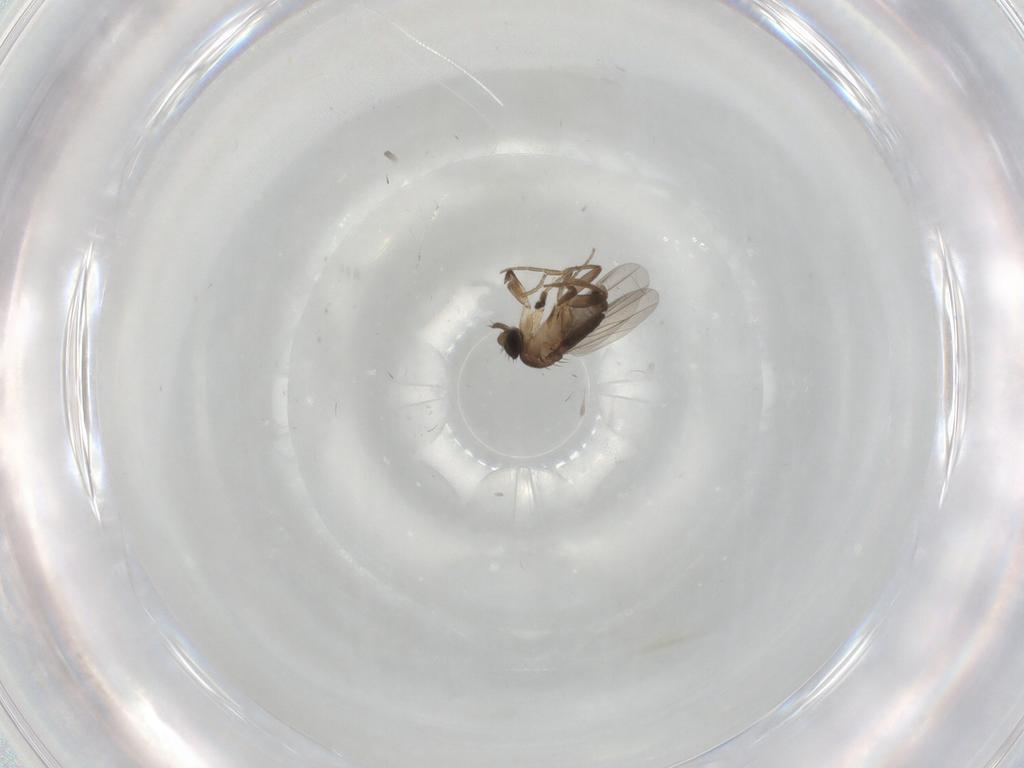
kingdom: Animalia
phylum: Arthropoda
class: Insecta
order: Diptera
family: Phoridae
